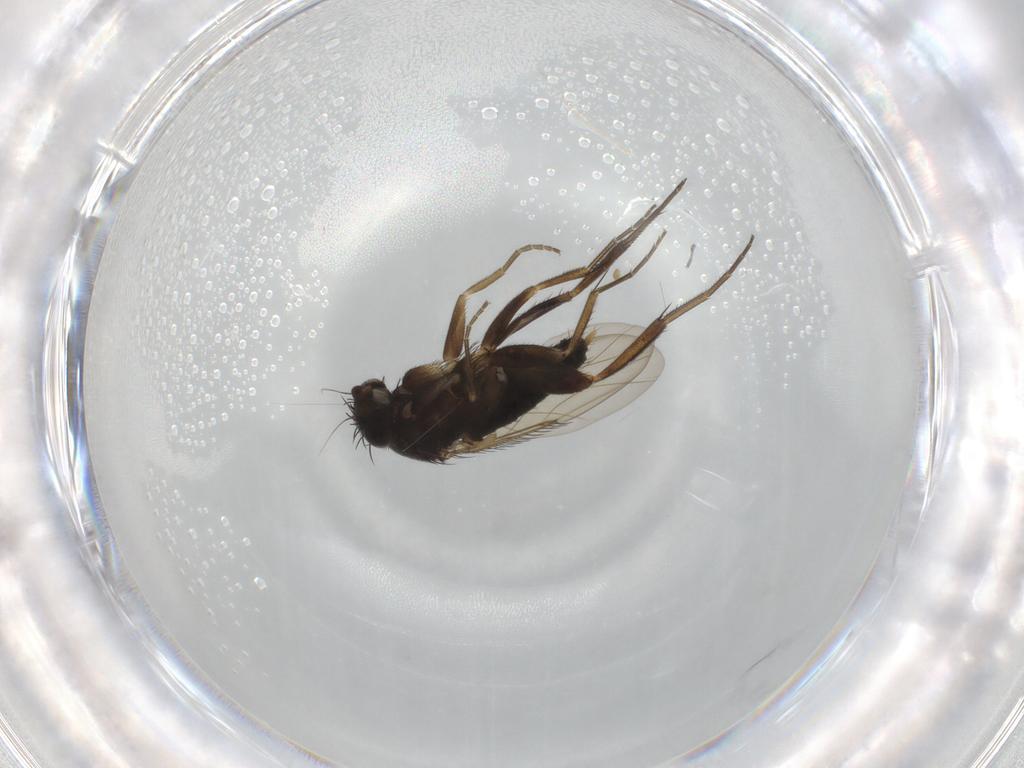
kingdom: Animalia
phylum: Arthropoda
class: Insecta
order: Diptera
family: Phoridae
